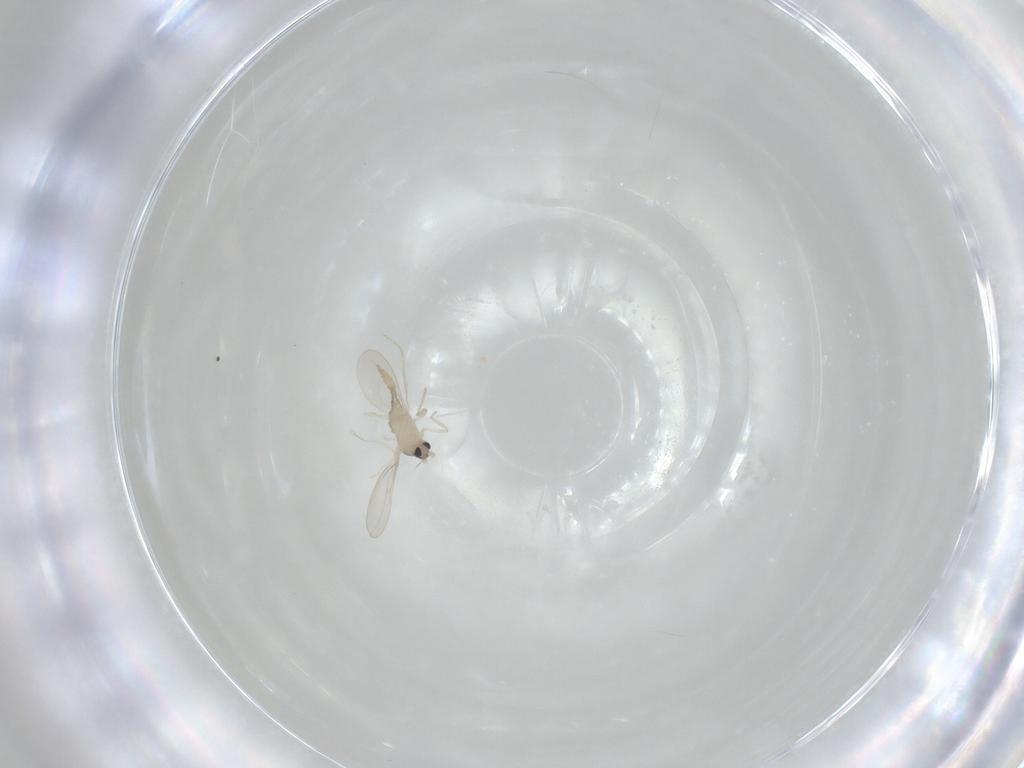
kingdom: Animalia
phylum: Arthropoda
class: Insecta
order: Diptera
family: Cecidomyiidae
